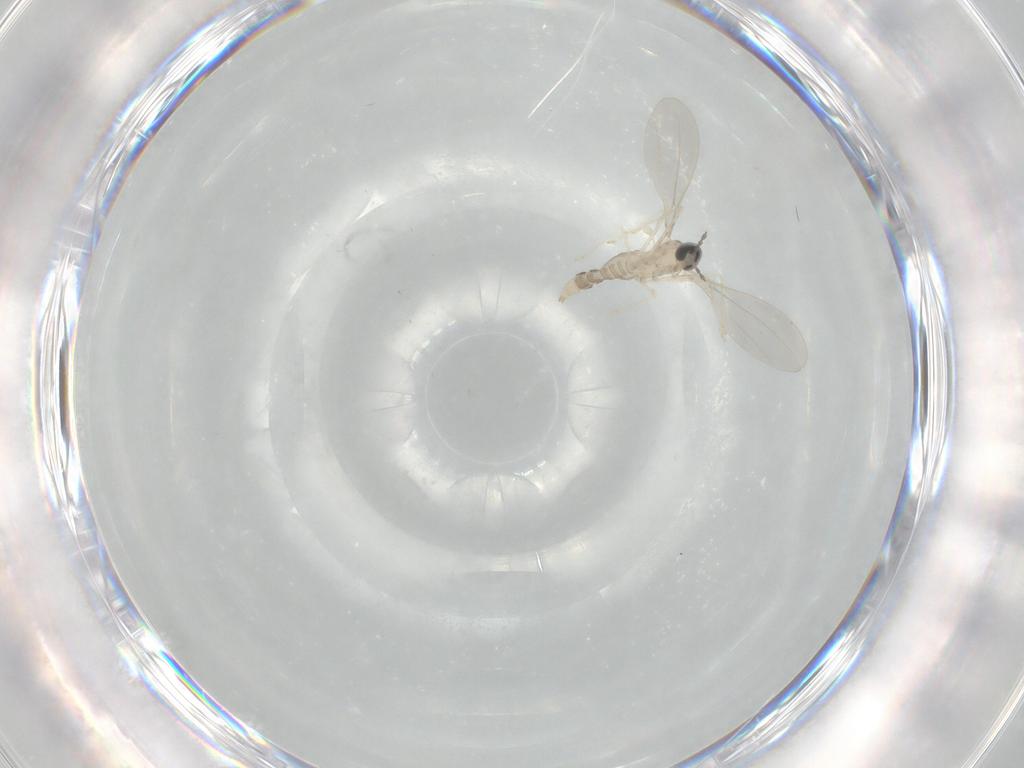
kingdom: Animalia
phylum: Arthropoda
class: Insecta
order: Diptera
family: Cecidomyiidae
